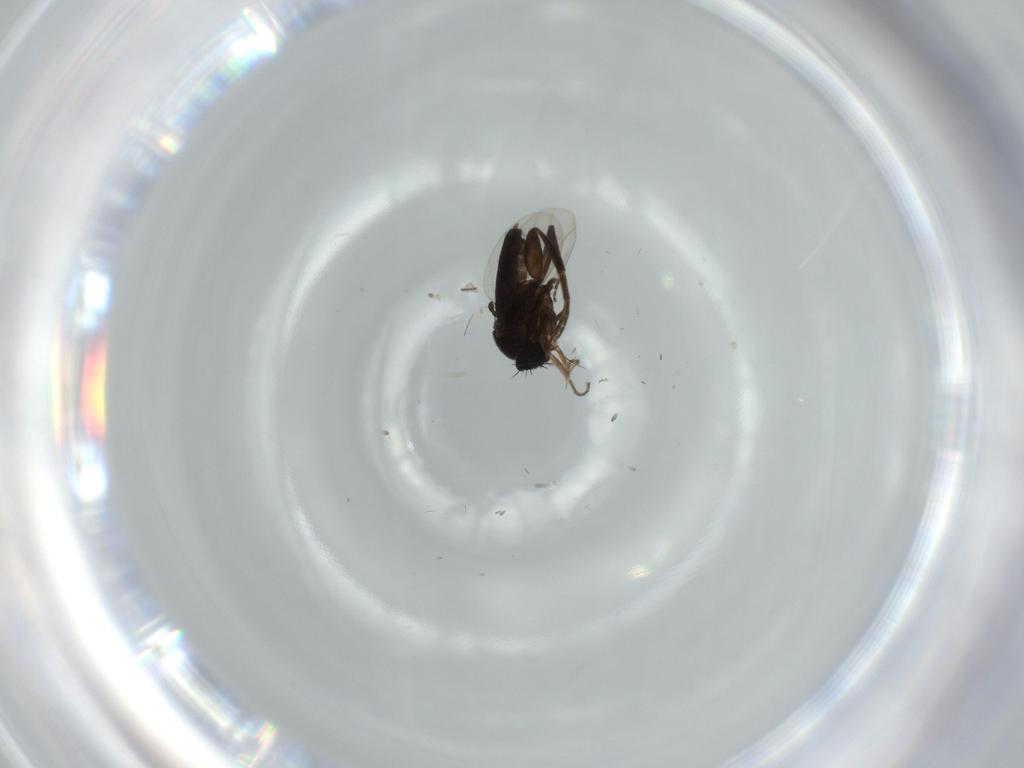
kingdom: Animalia
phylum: Arthropoda
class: Insecta
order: Diptera
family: Phoridae
